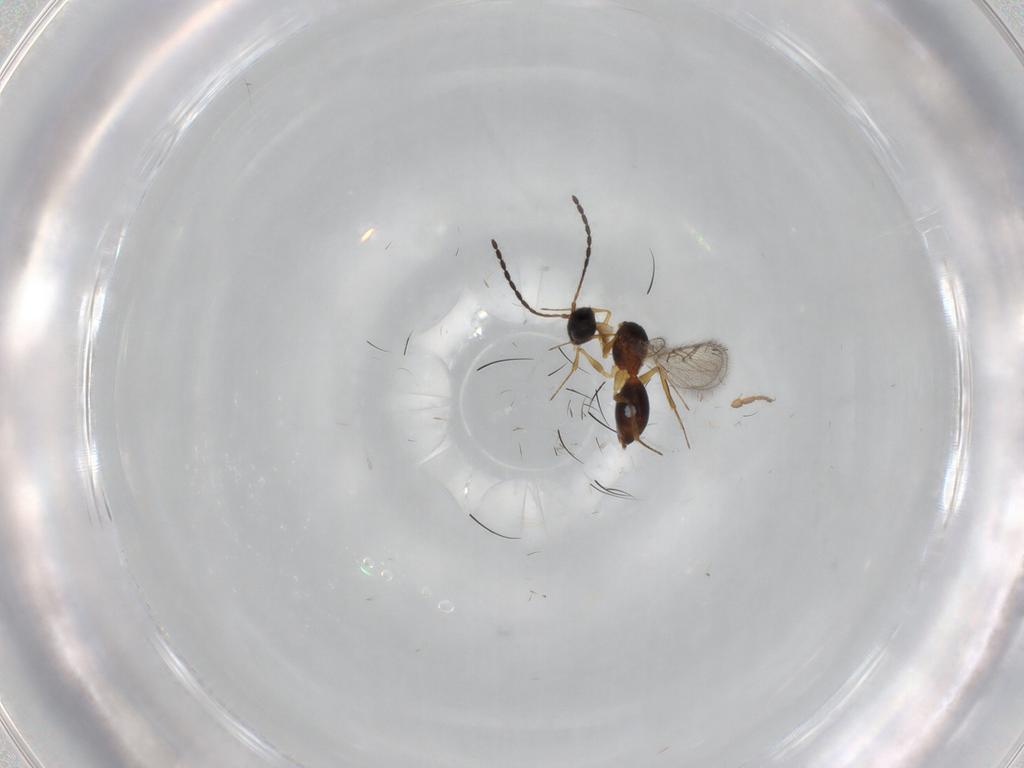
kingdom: Animalia
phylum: Arthropoda
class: Insecta
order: Hymenoptera
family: Figitidae
